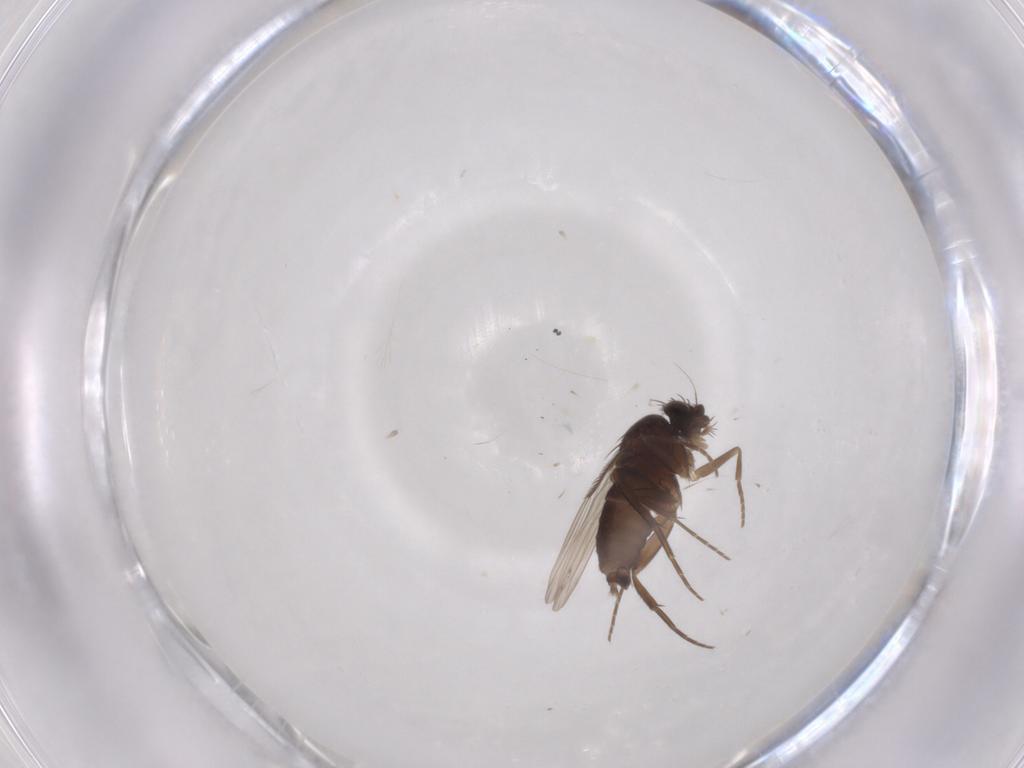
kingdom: Animalia
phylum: Arthropoda
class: Insecta
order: Diptera
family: Phoridae
